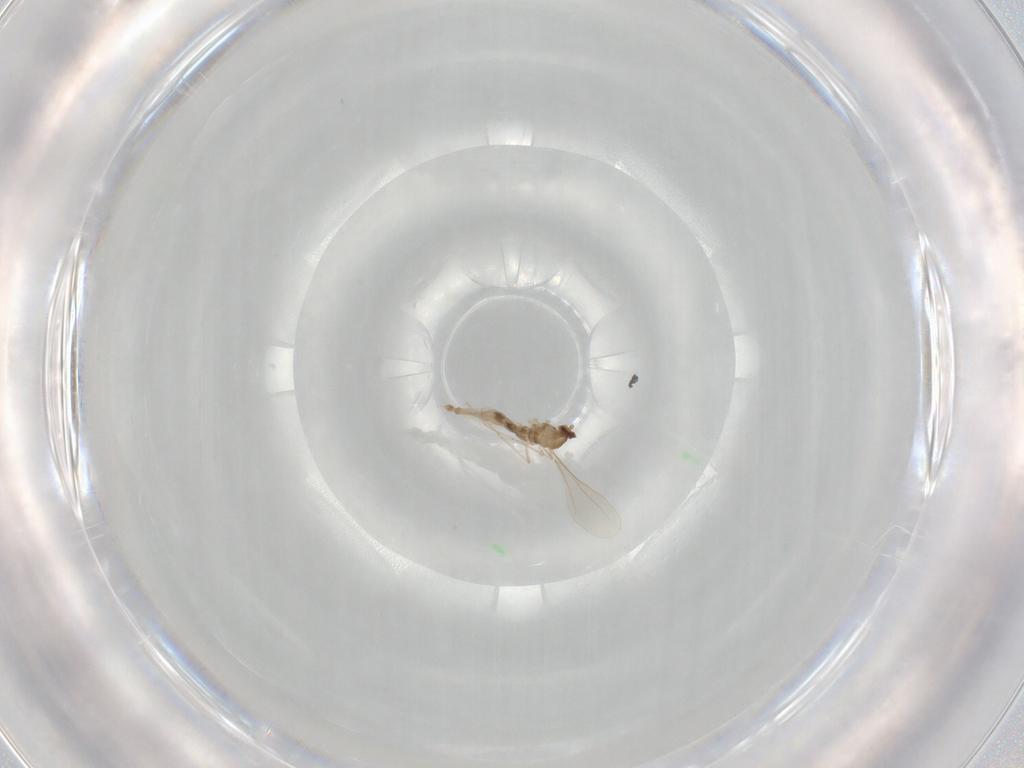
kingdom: Animalia
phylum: Arthropoda
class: Insecta
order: Diptera
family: Cecidomyiidae
